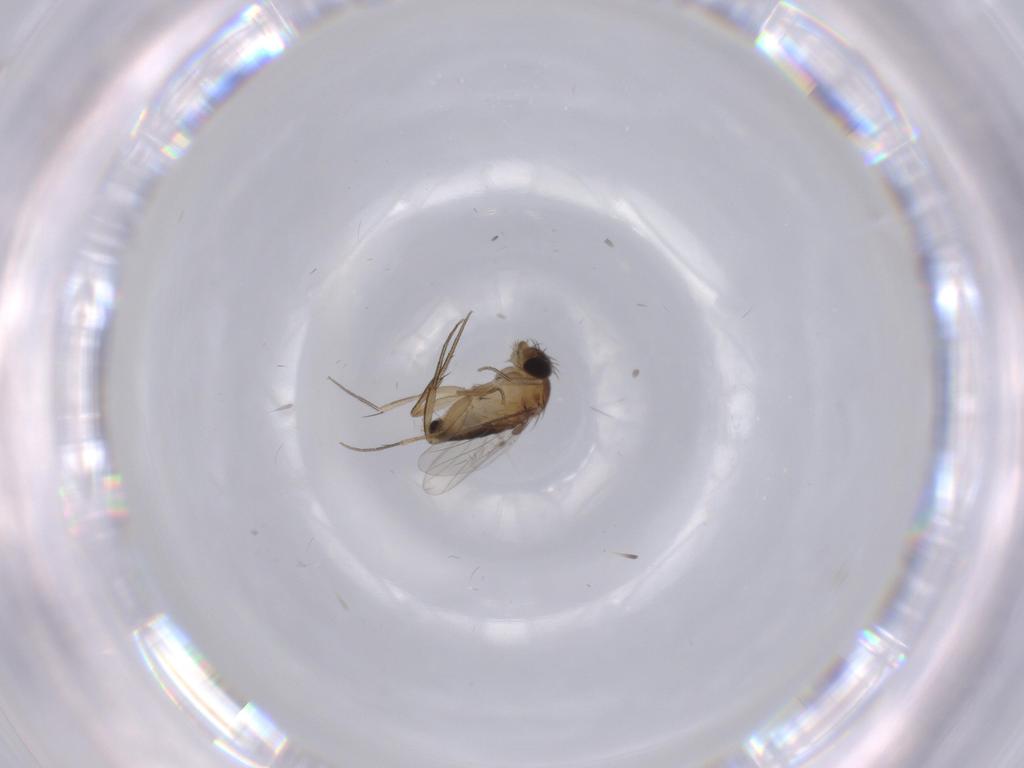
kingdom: Animalia
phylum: Arthropoda
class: Insecta
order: Diptera
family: Phoridae
